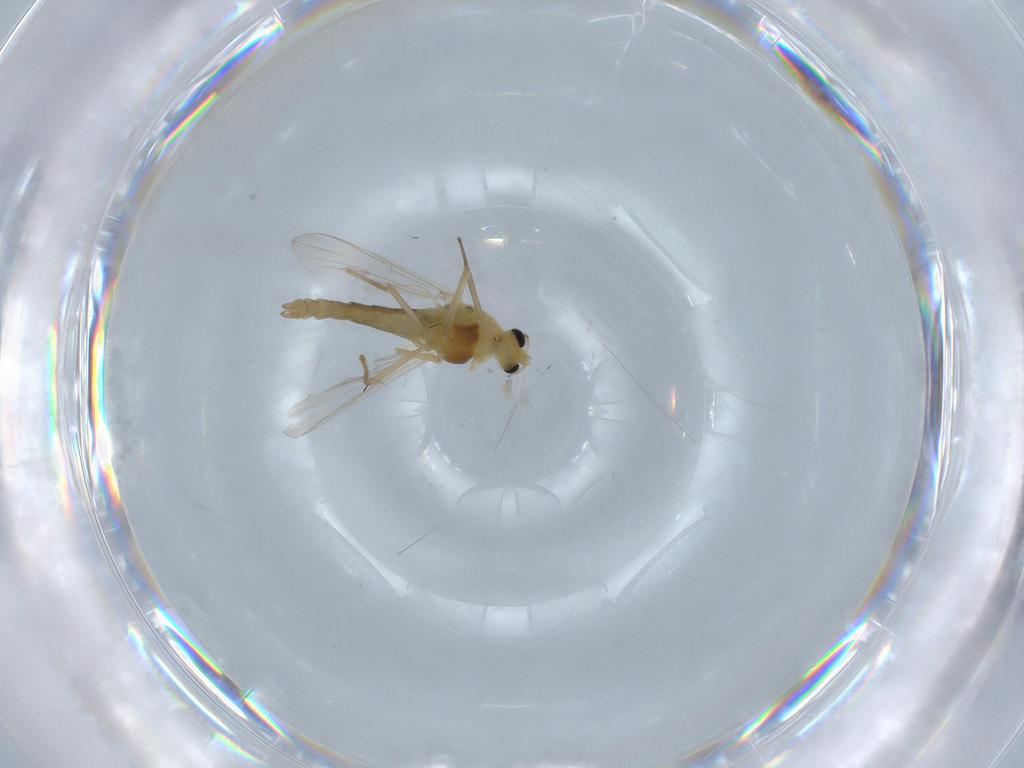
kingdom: Animalia
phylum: Arthropoda
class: Insecta
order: Diptera
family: Chironomidae
